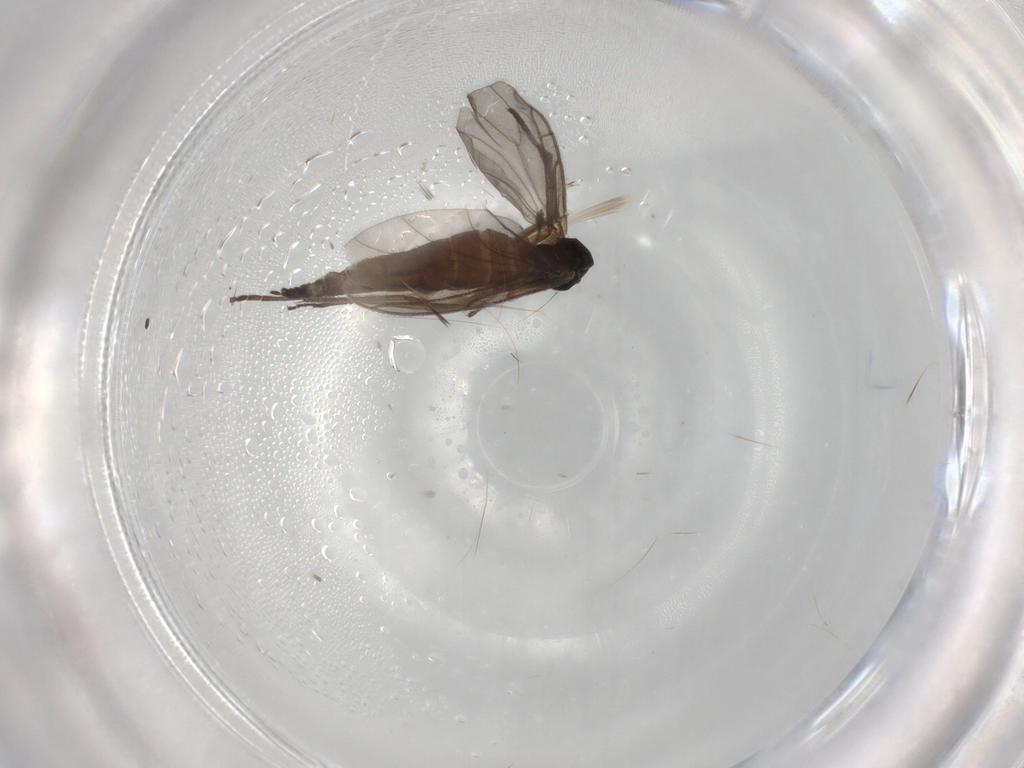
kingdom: Animalia
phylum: Arthropoda
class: Insecta
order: Diptera
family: Sciaridae
